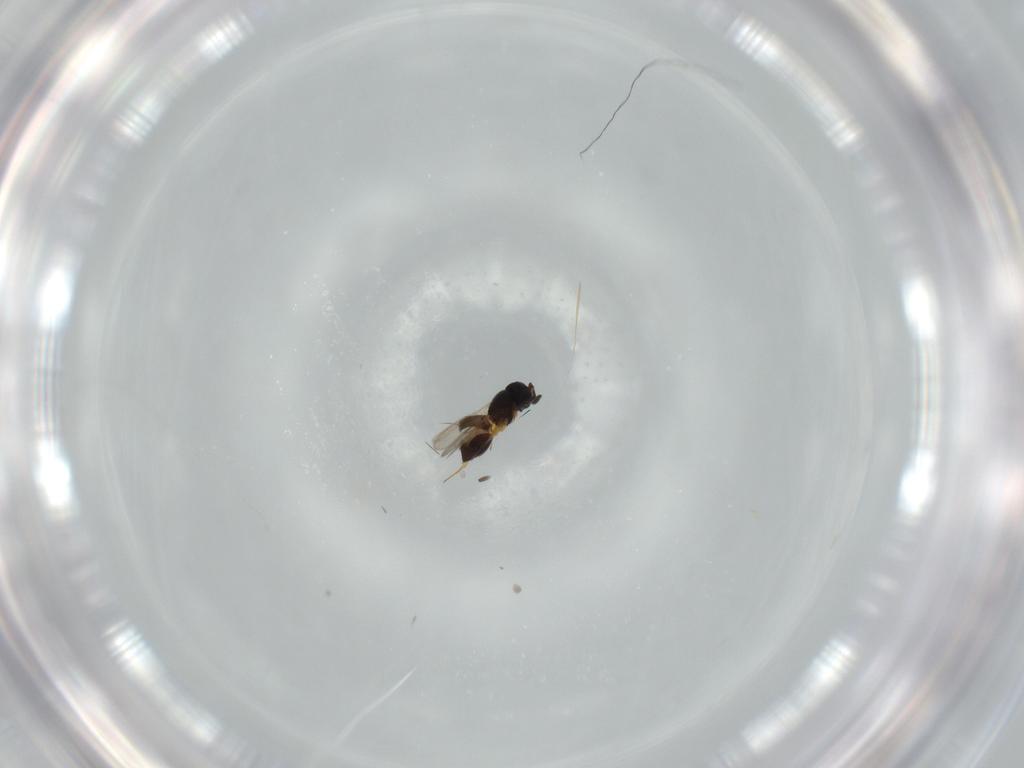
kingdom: Animalia
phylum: Arthropoda
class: Insecta
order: Hymenoptera
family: Scelionidae
